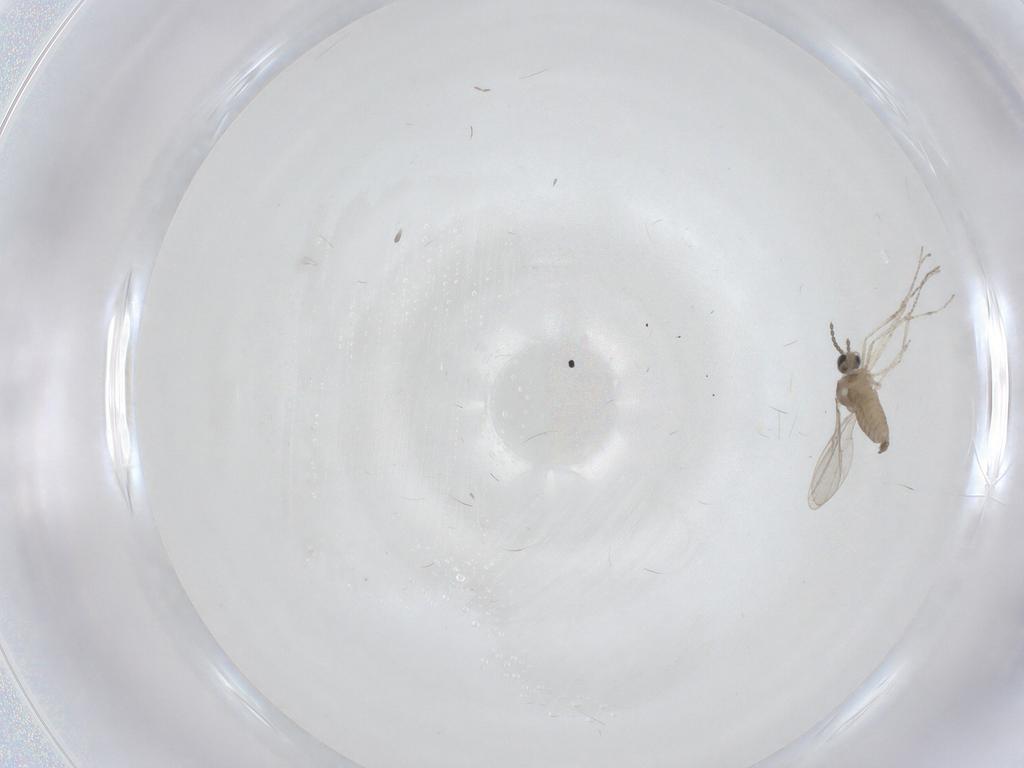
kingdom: Animalia
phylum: Arthropoda
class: Insecta
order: Diptera
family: Cecidomyiidae
